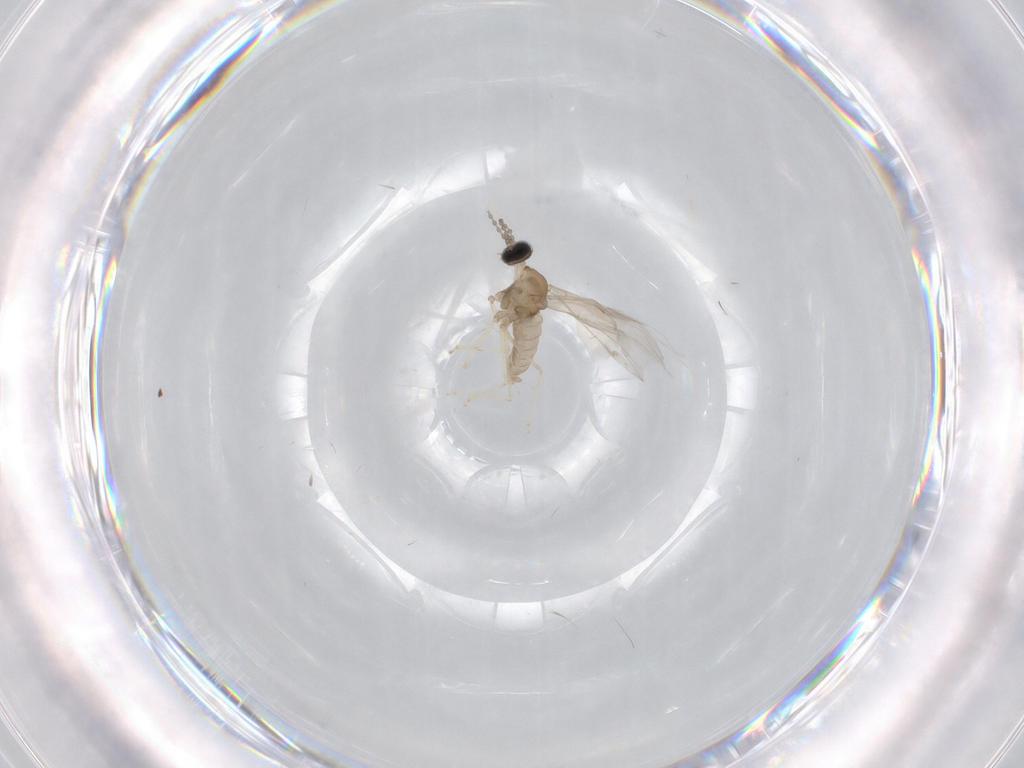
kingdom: Animalia
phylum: Arthropoda
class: Insecta
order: Diptera
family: Cecidomyiidae
